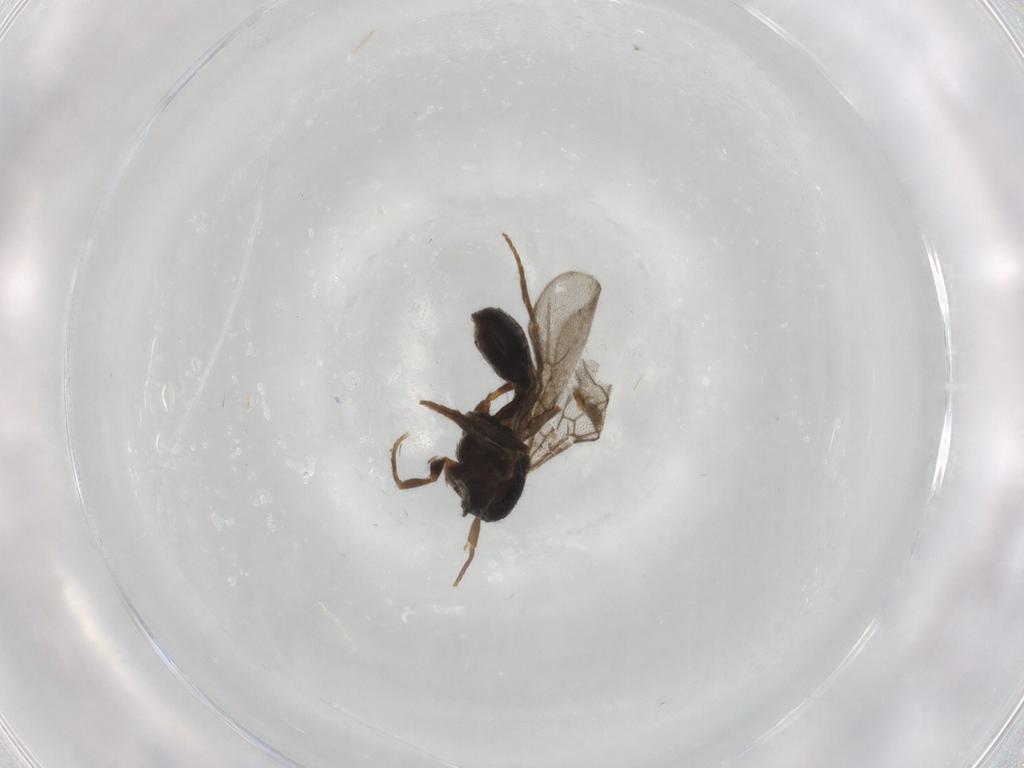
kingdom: Animalia
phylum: Arthropoda
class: Insecta
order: Hymenoptera
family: Formicidae
